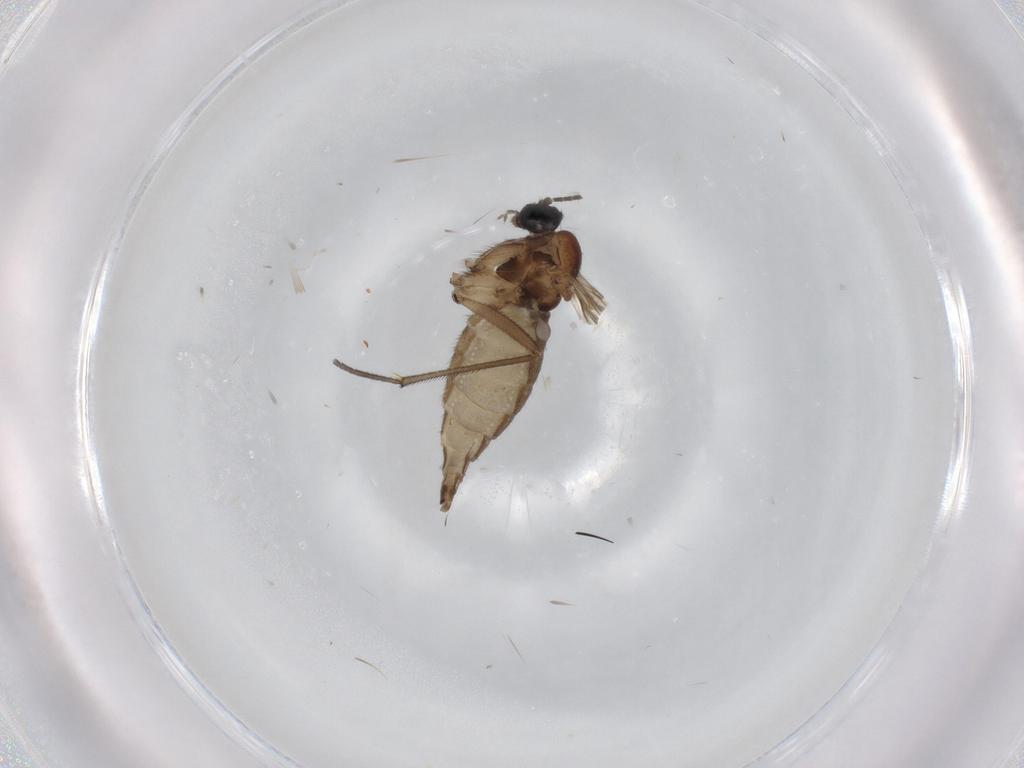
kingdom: Animalia
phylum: Arthropoda
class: Insecta
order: Diptera
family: Sciaridae
